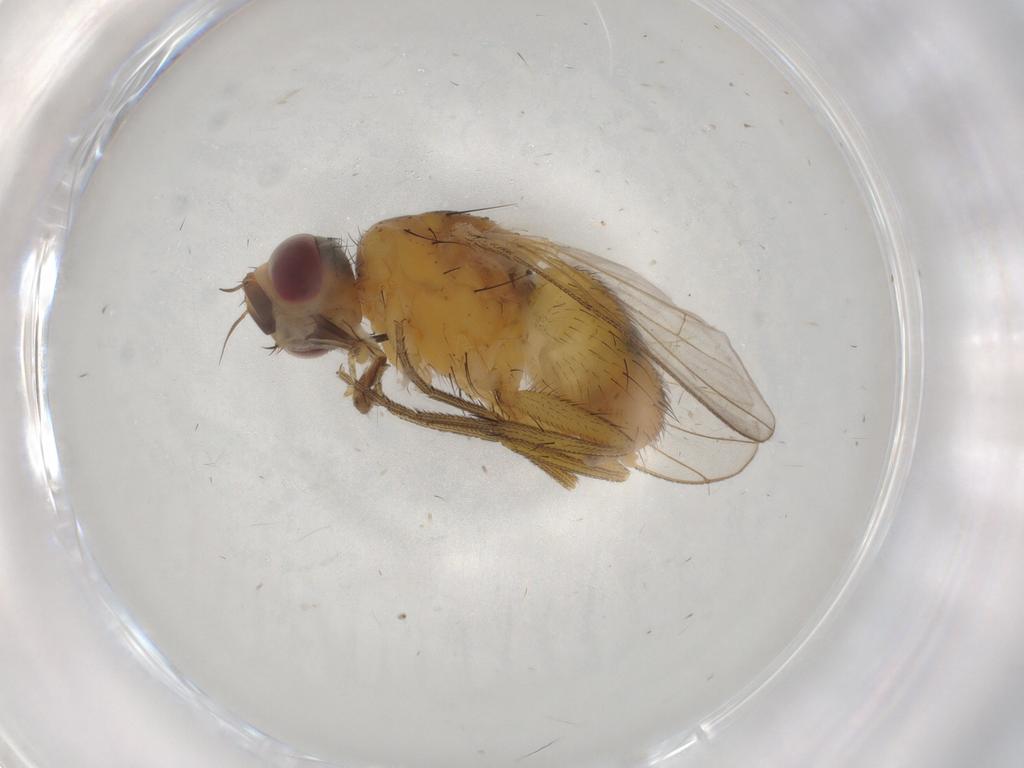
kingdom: Animalia
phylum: Arthropoda
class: Insecta
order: Diptera
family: Muscidae
